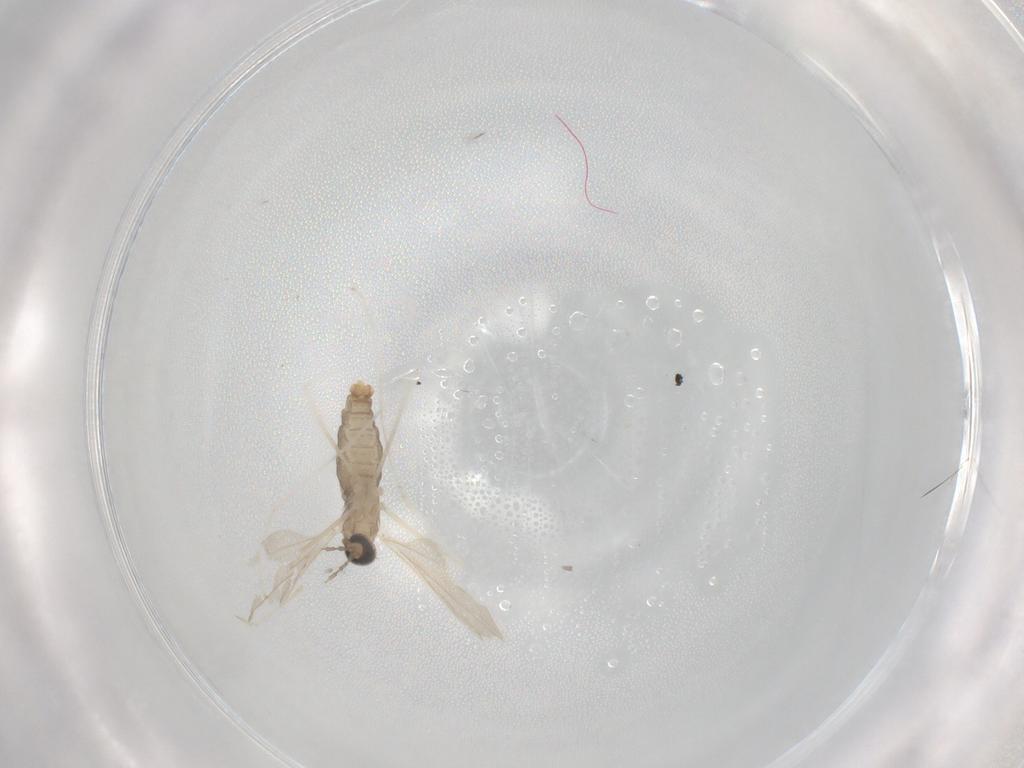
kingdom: Animalia
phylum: Arthropoda
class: Insecta
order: Diptera
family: Cecidomyiidae
